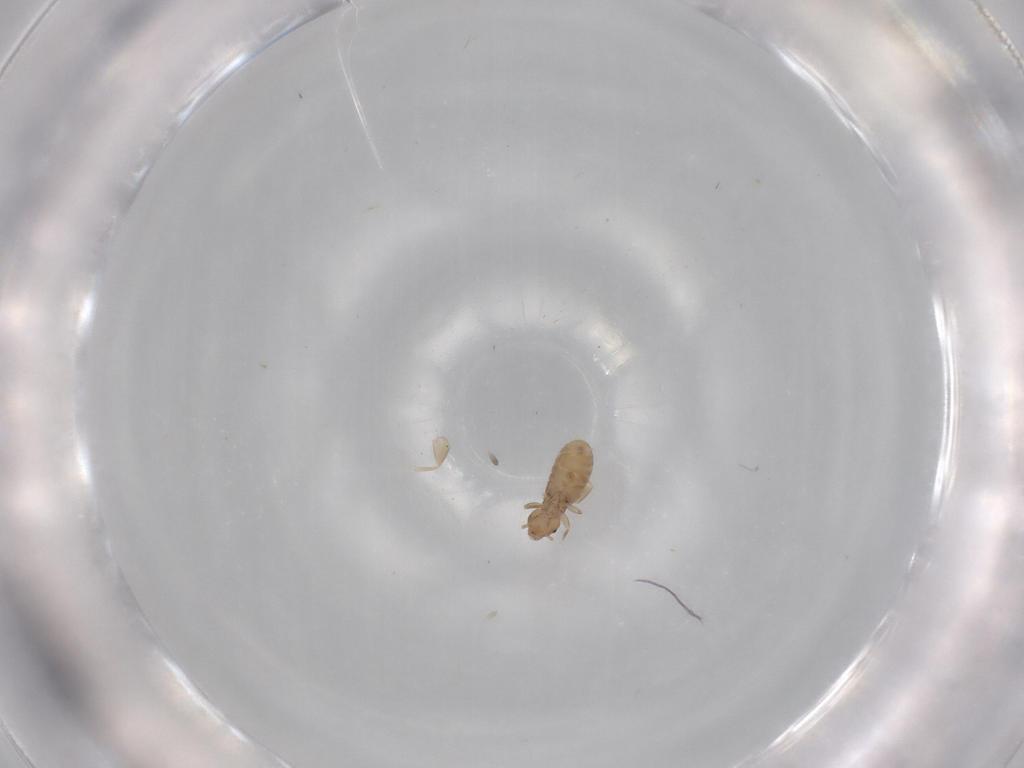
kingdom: Animalia
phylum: Arthropoda
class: Insecta
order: Psocodea
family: Liposcelididae
